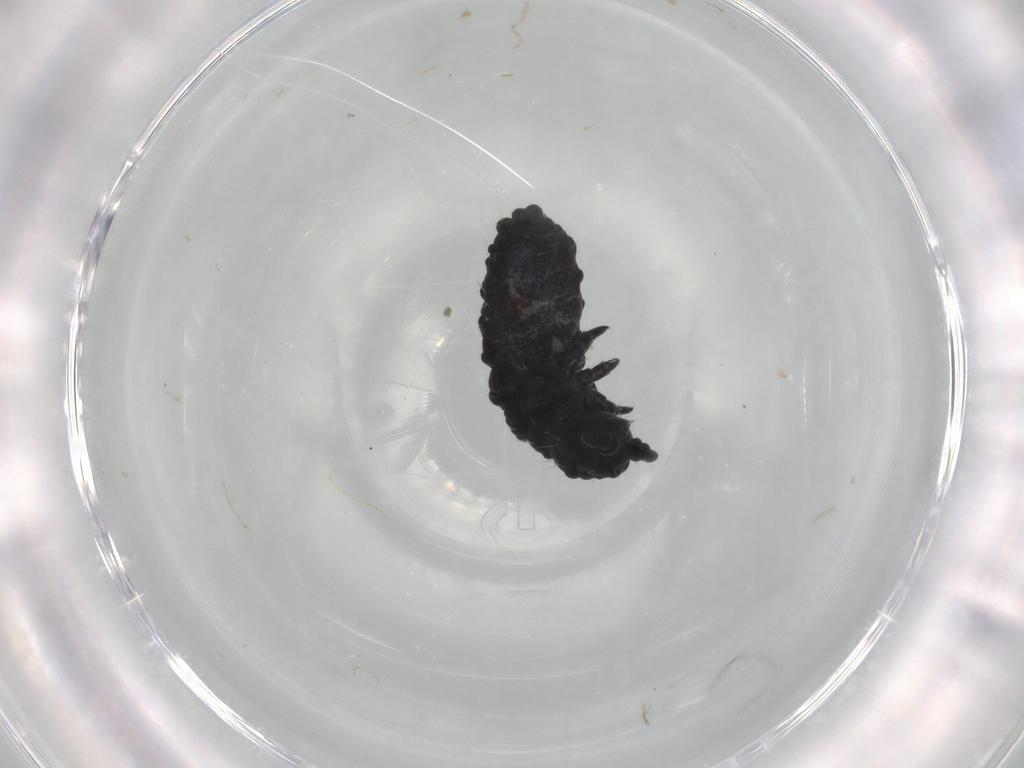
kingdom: Animalia
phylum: Arthropoda
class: Collembola
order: Poduromorpha
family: Neanuridae
